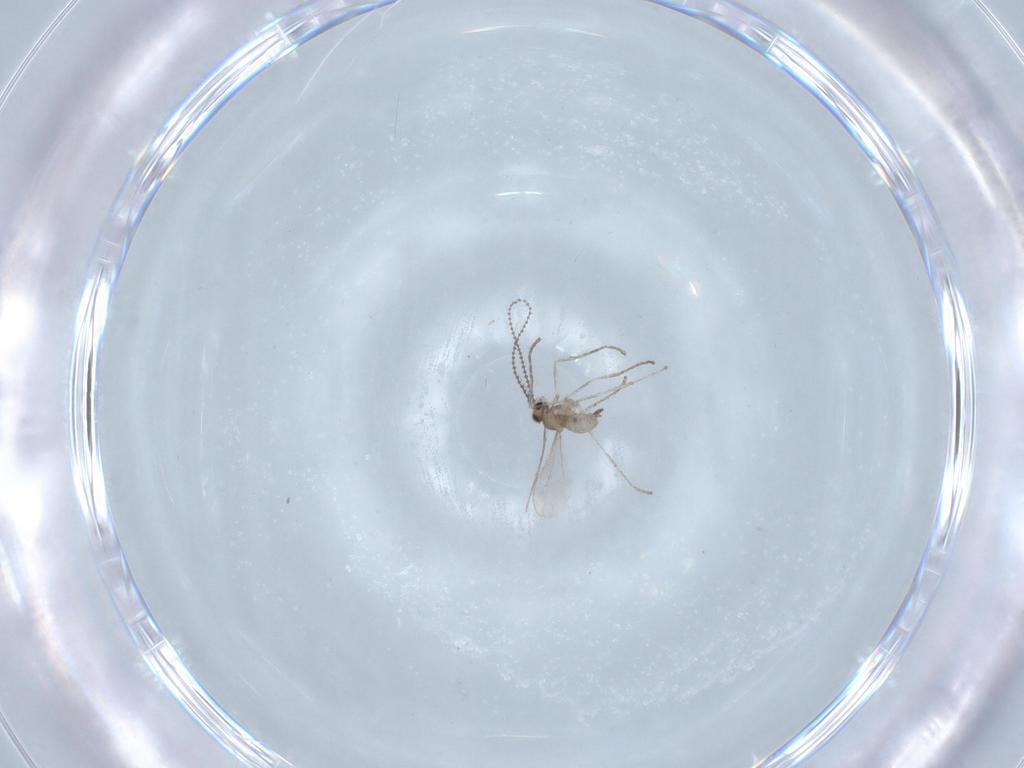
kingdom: Animalia
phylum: Arthropoda
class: Insecta
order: Diptera
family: Cecidomyiidae
